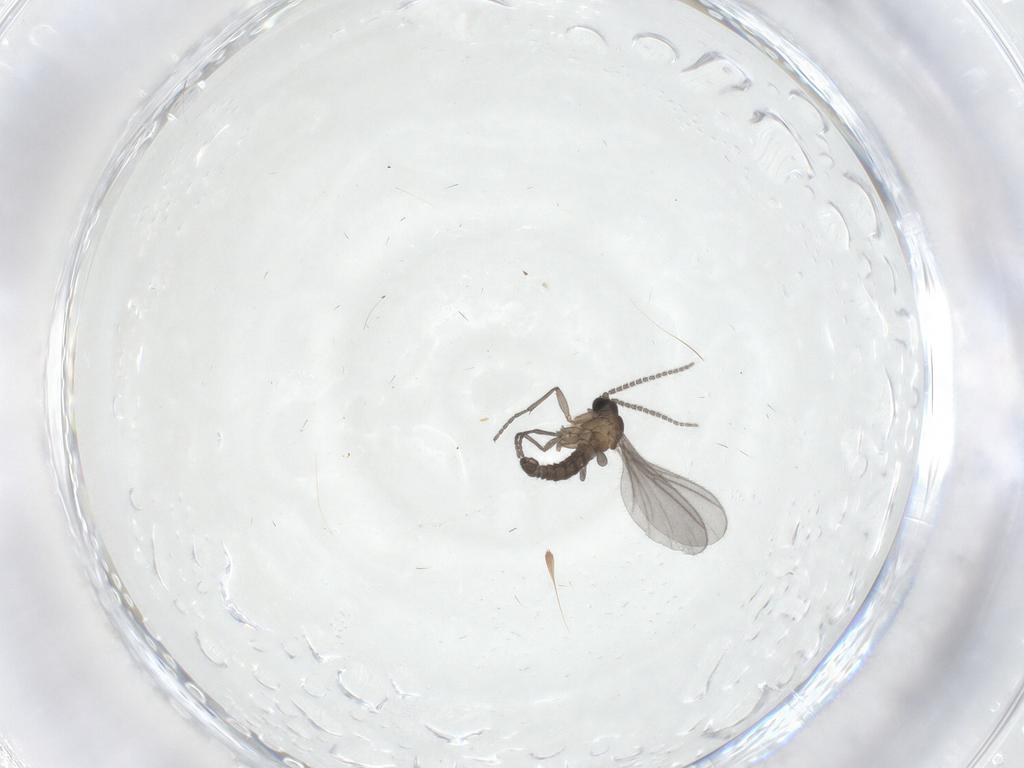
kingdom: Animalia
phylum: Arthropoda
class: Insecta
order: Diptera
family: Sciaridae
